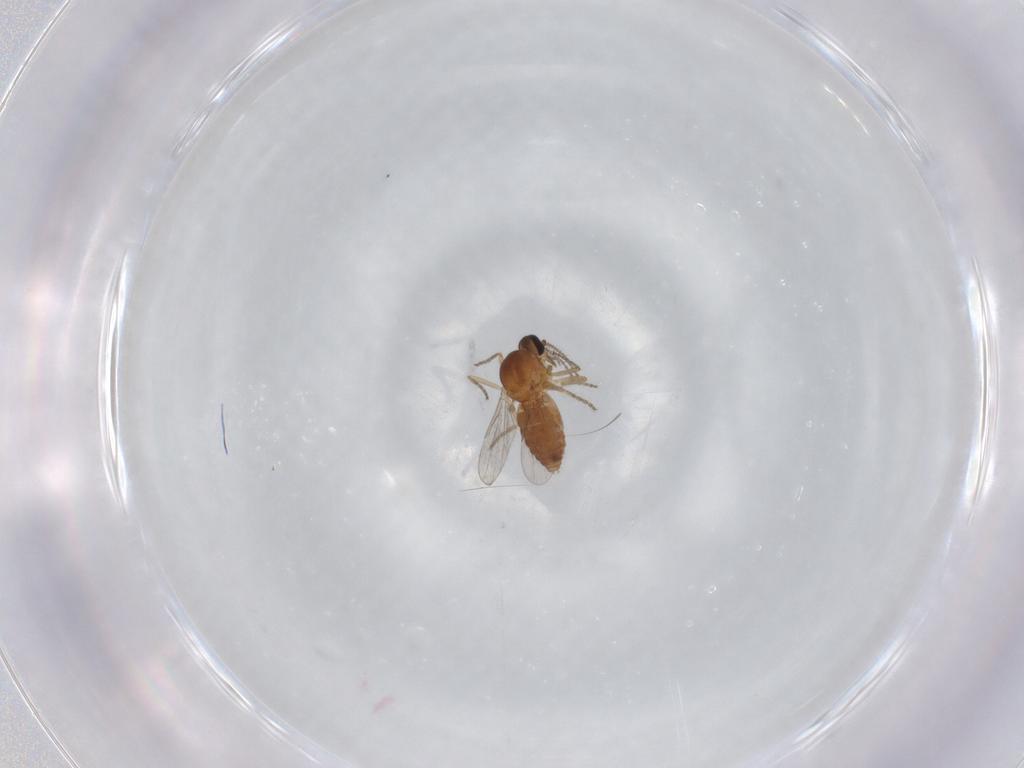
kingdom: Animalia
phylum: Arthropoda
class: Insecta
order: Diptera
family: Ceratopogonidae
